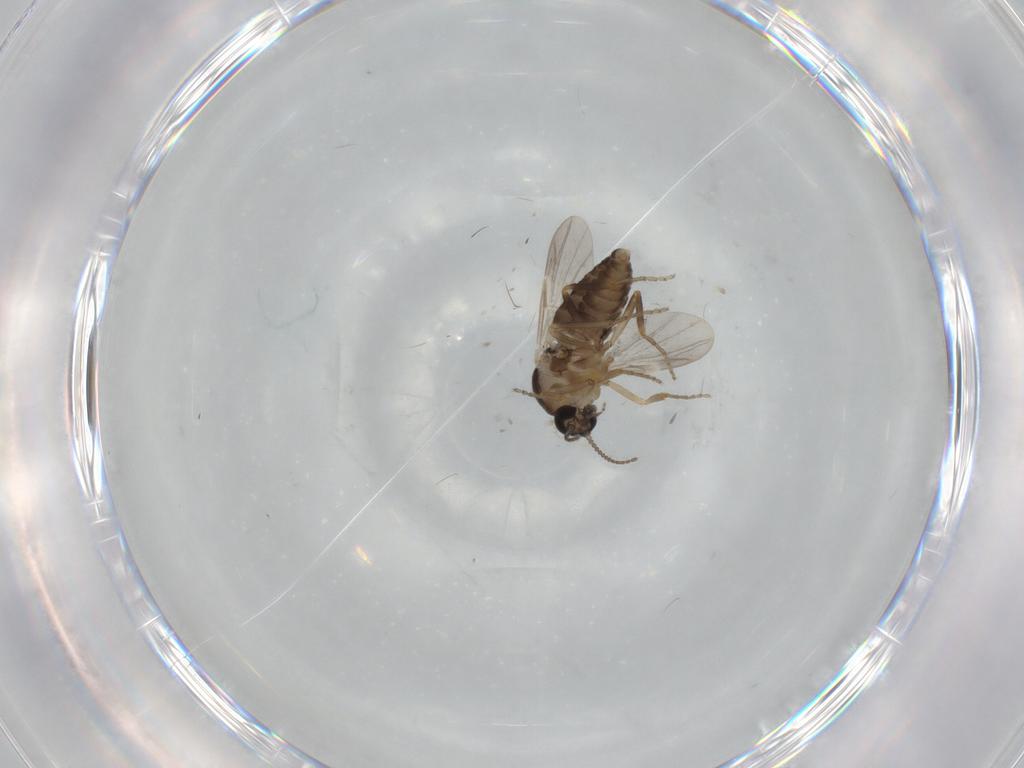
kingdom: Animalia
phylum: Arthropoda
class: Insecta
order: Diptera
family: Ceratopogonidae
